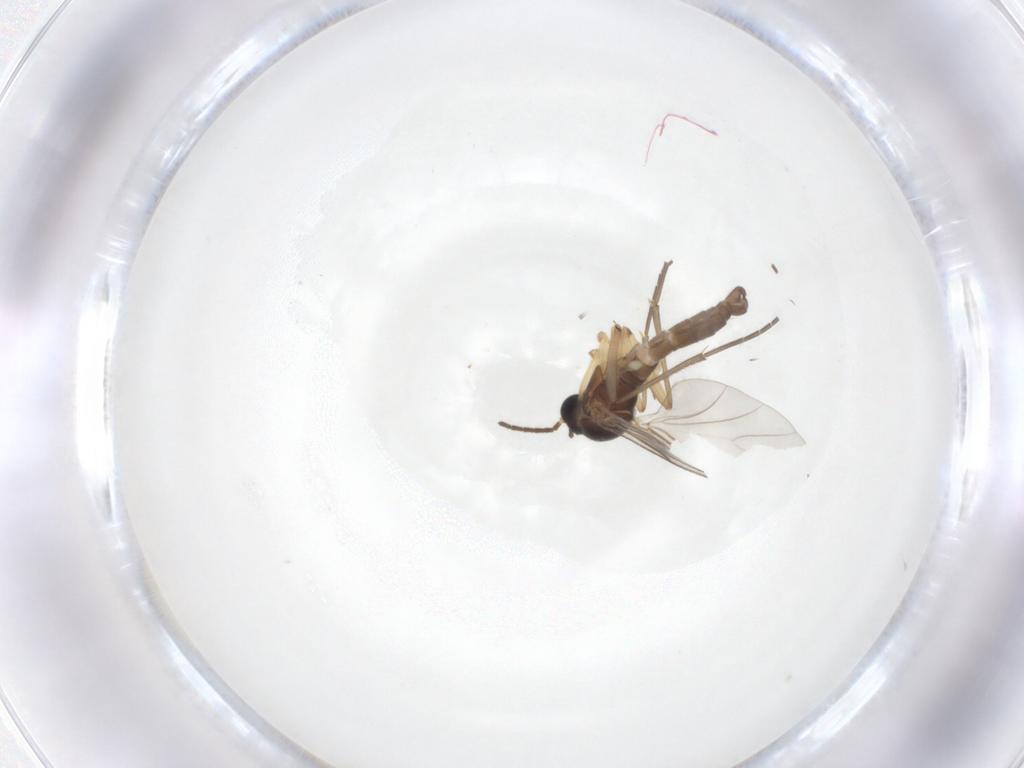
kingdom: Animalia
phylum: Arthropoda
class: Insecta
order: Diptera
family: Sciaridae
